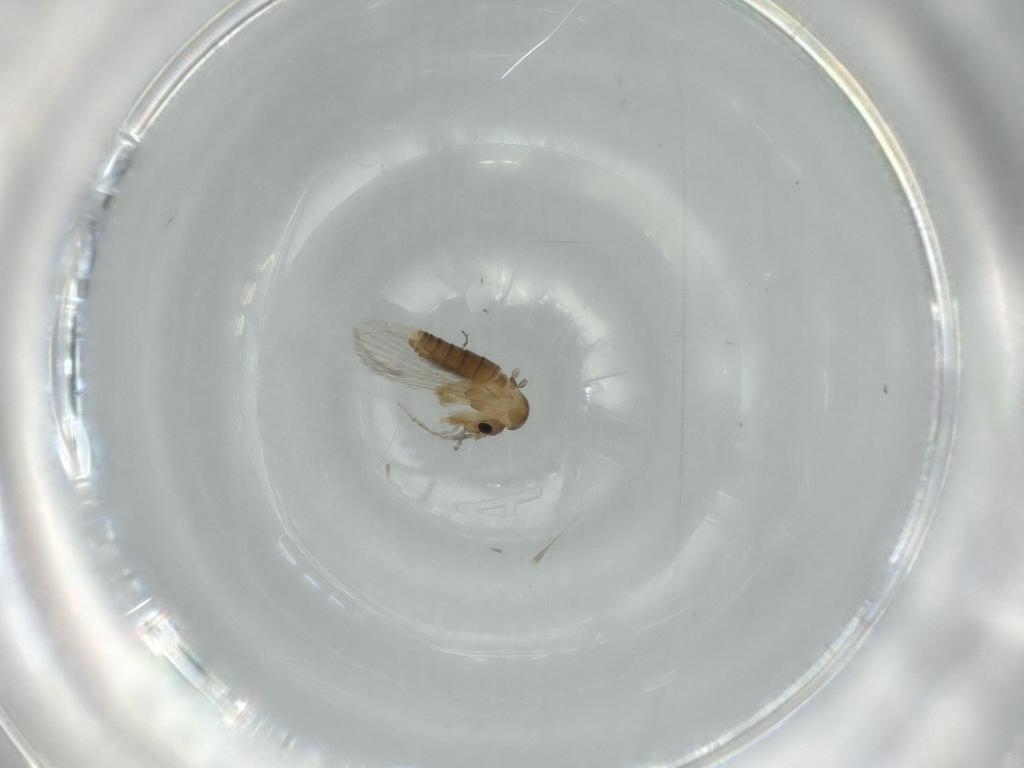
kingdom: Animalia
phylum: Arthropoda
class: Insecta
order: Diptera
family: Psychodidae
